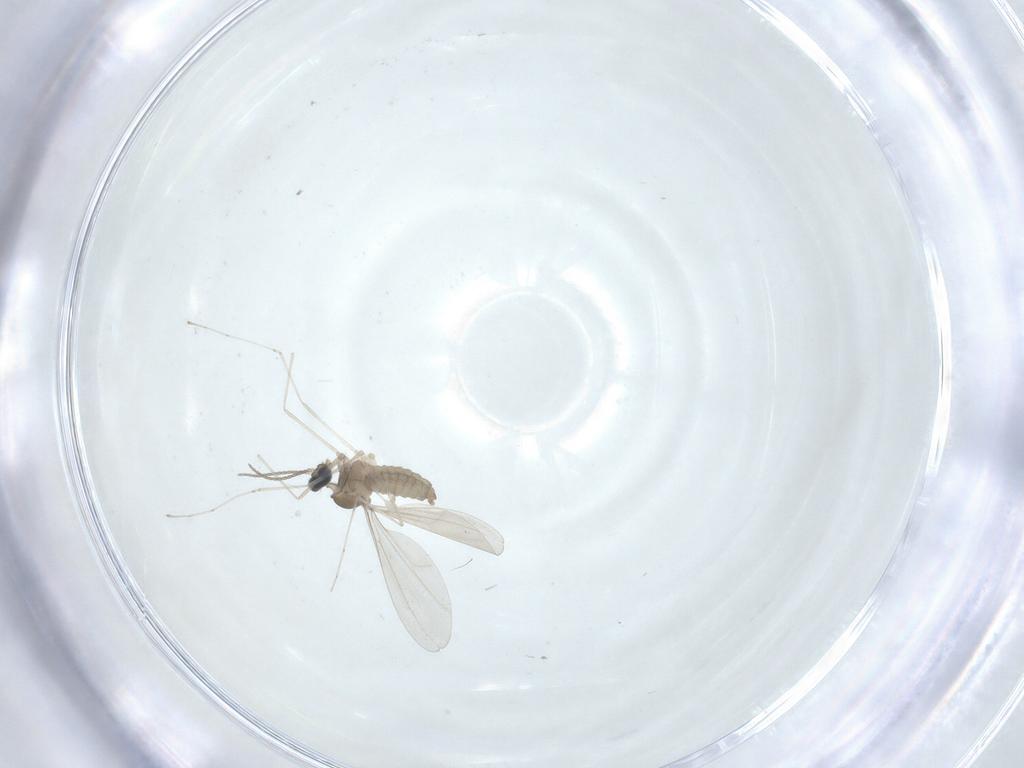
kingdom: Animalia
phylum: Arthropoda
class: Insecta
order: Diptera
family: Cecidomyiidae
